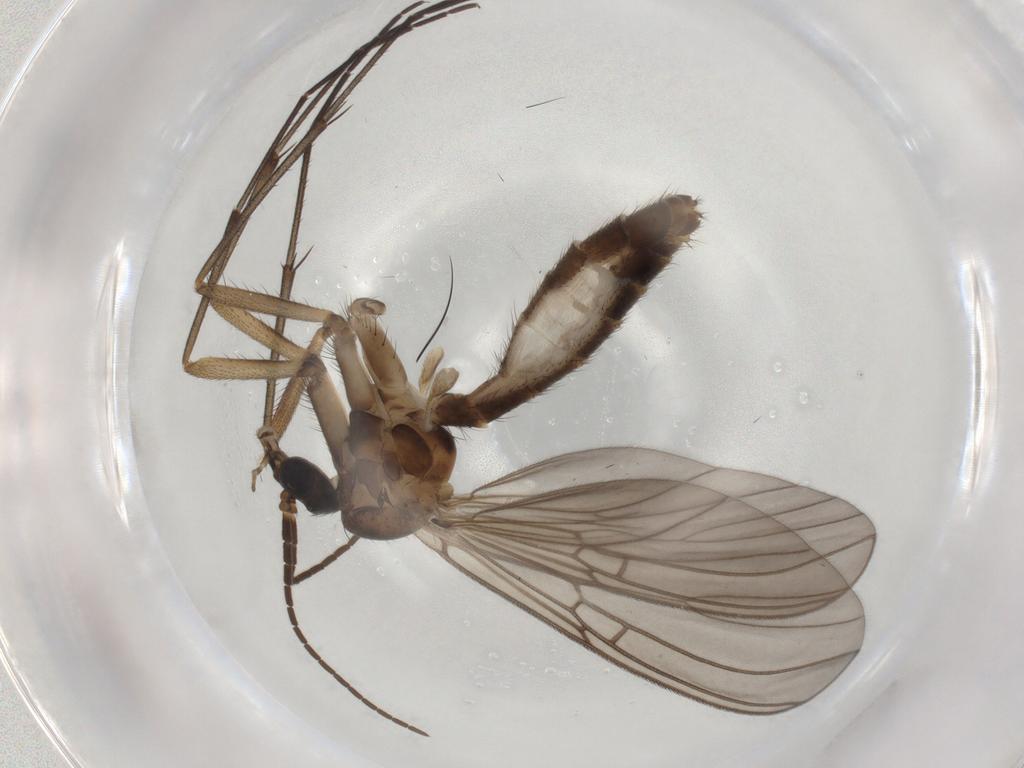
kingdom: Animalia
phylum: Arthropoda
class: Insecta
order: Diptera
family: Mycetophilidae
